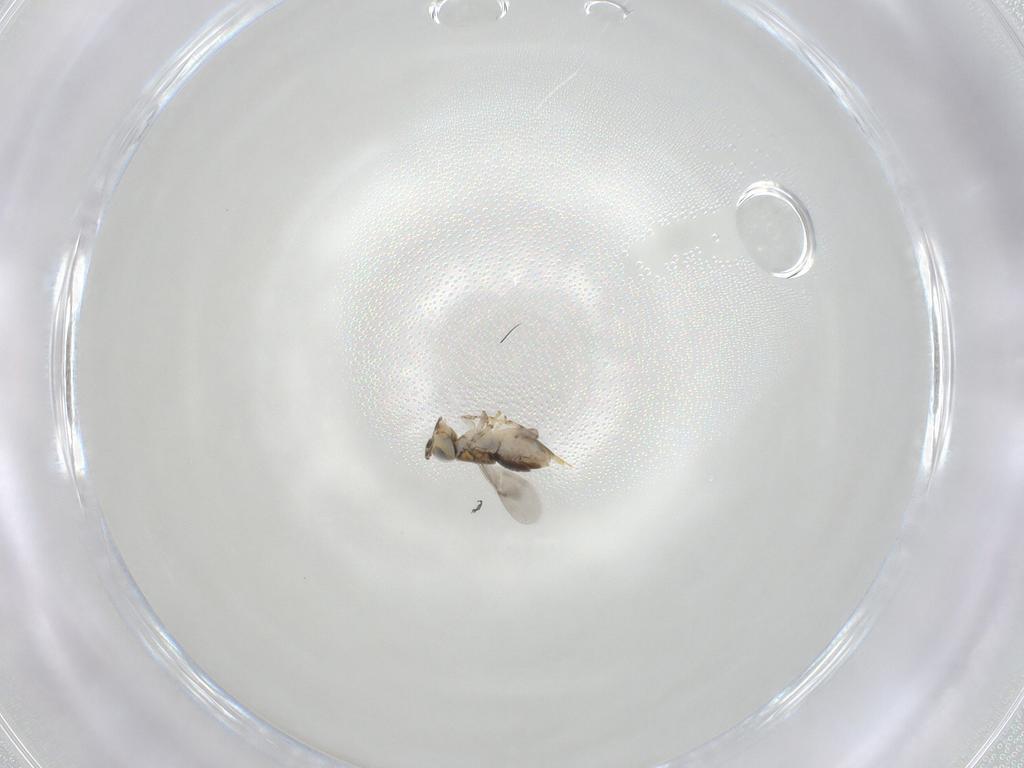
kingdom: Animalia
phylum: Arthropoda
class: Insecta
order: Hymenoptera
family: Encyrtidae
